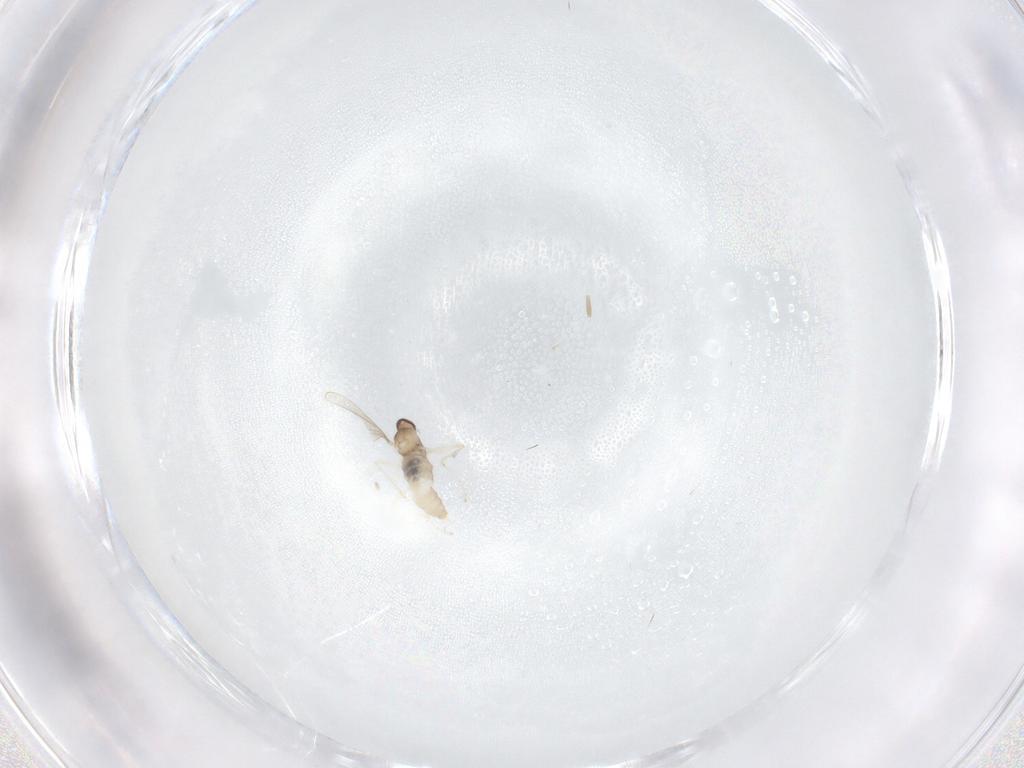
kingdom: Animalia
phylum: Arthropoda
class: Insecta
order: Diptera
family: Cecidomyiidae
